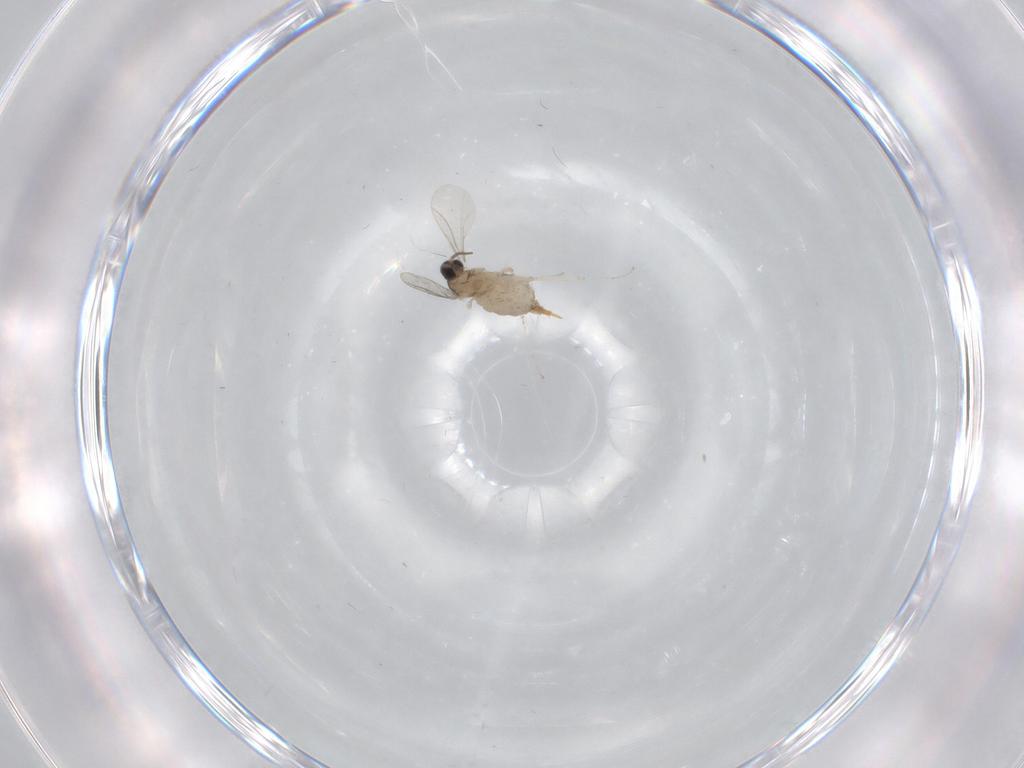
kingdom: Animalia
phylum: Arthropoda
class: Insecta
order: Diptera
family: Cecidomyiidae
